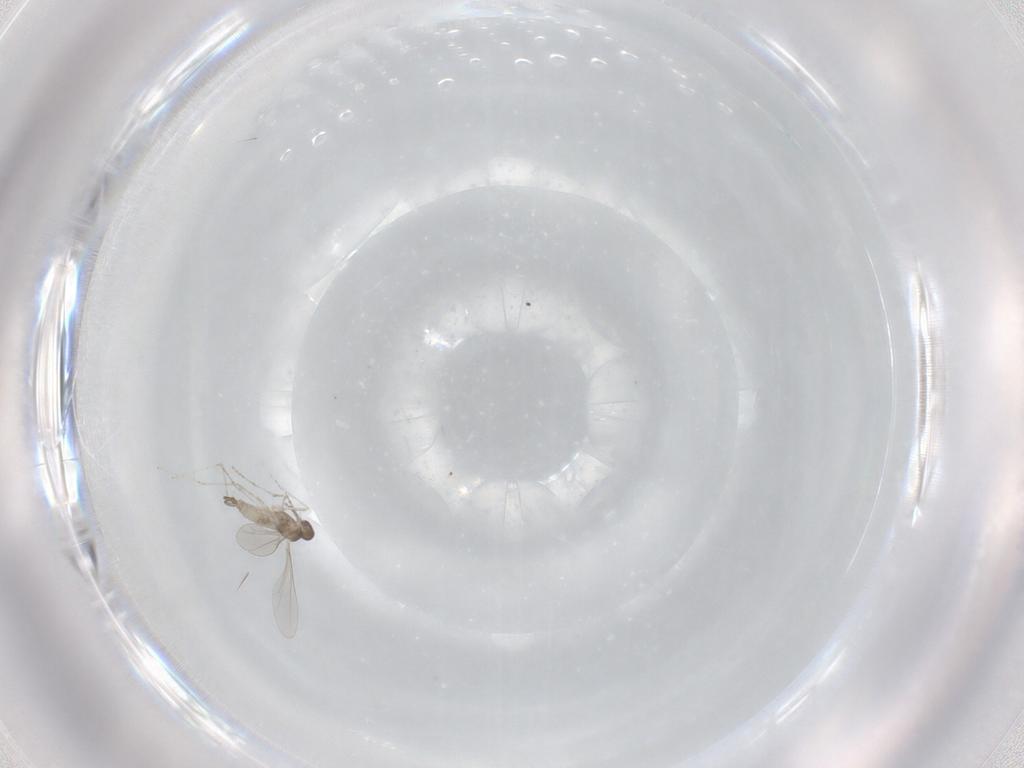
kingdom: Animalia
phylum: Arthropoda
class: Insecta
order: Diptera
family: Cecidomyiidae
